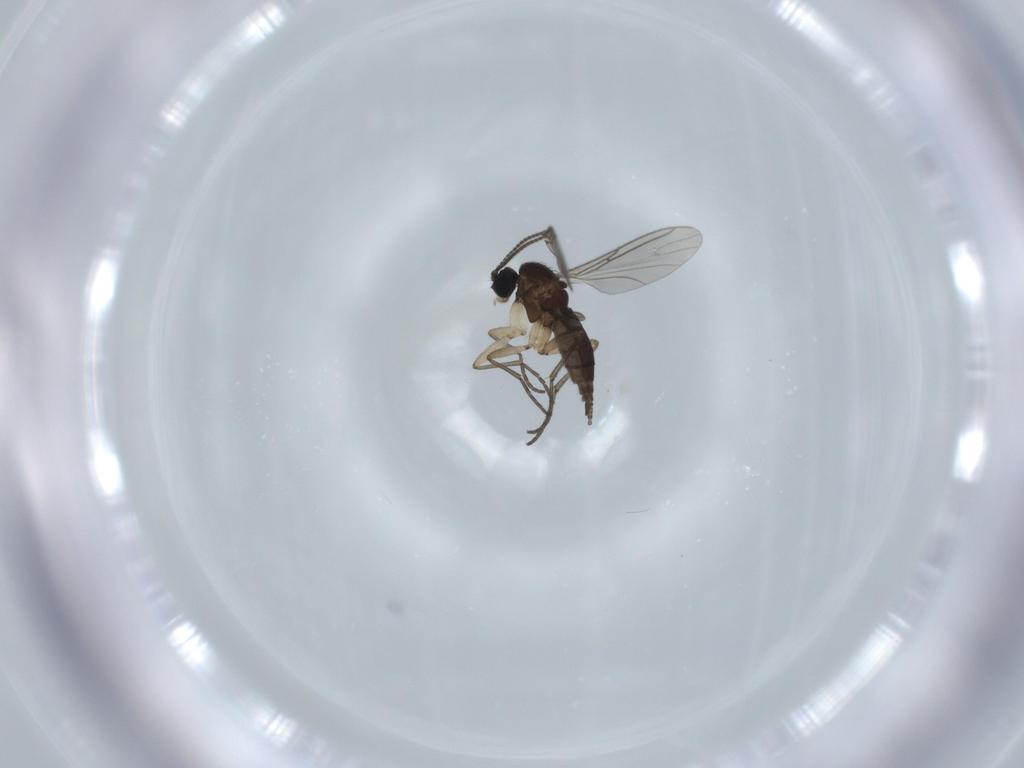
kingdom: Animalia
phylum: Arthropoda
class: Insecta
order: Diptera
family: Sciaridae
